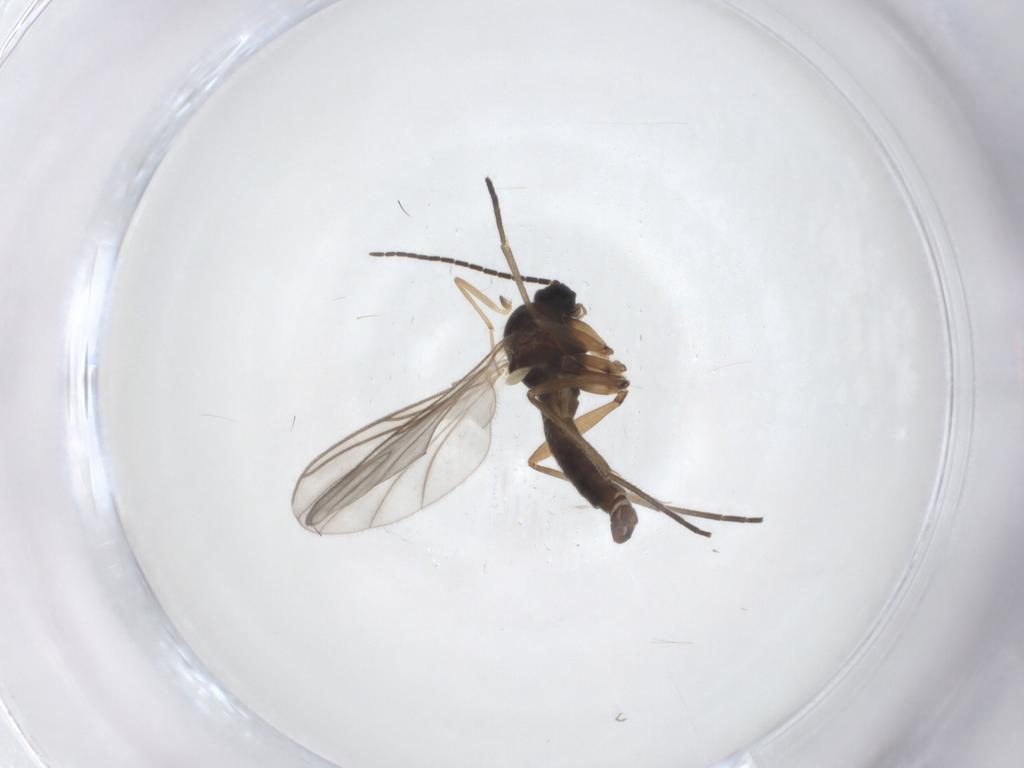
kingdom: Animalia
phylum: Arthropoda
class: Insecta
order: Diptera
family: Sciaridae
